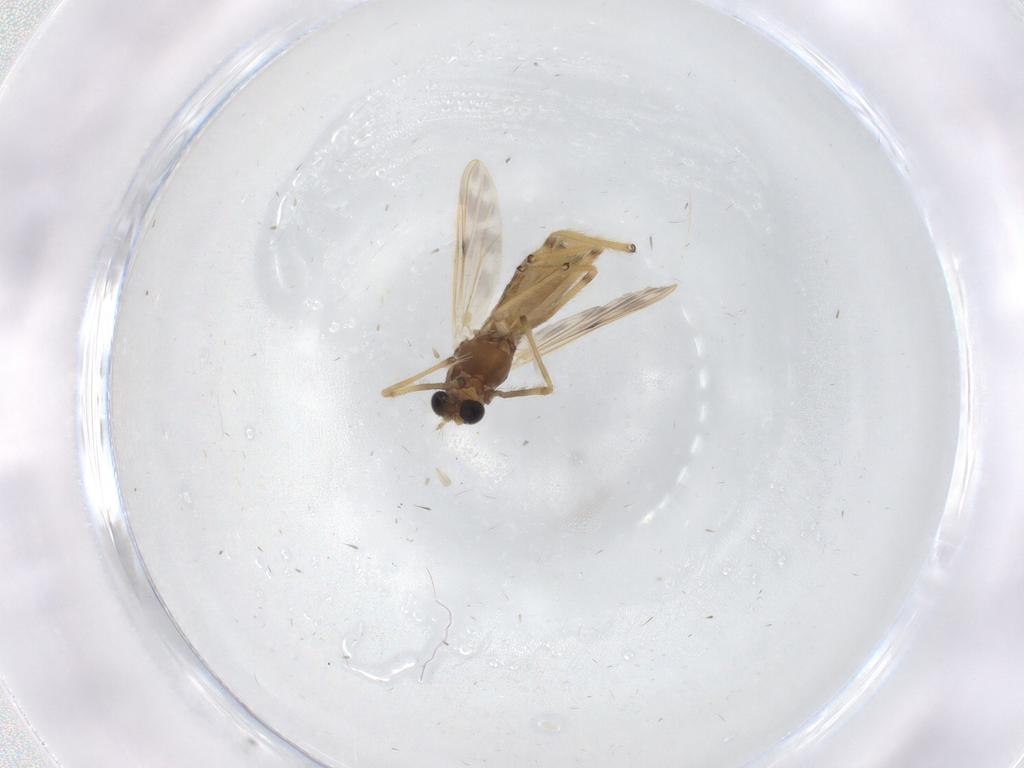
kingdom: Animalia
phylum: Arthropoda
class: Insecta
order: Diptera
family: Chironomidae
